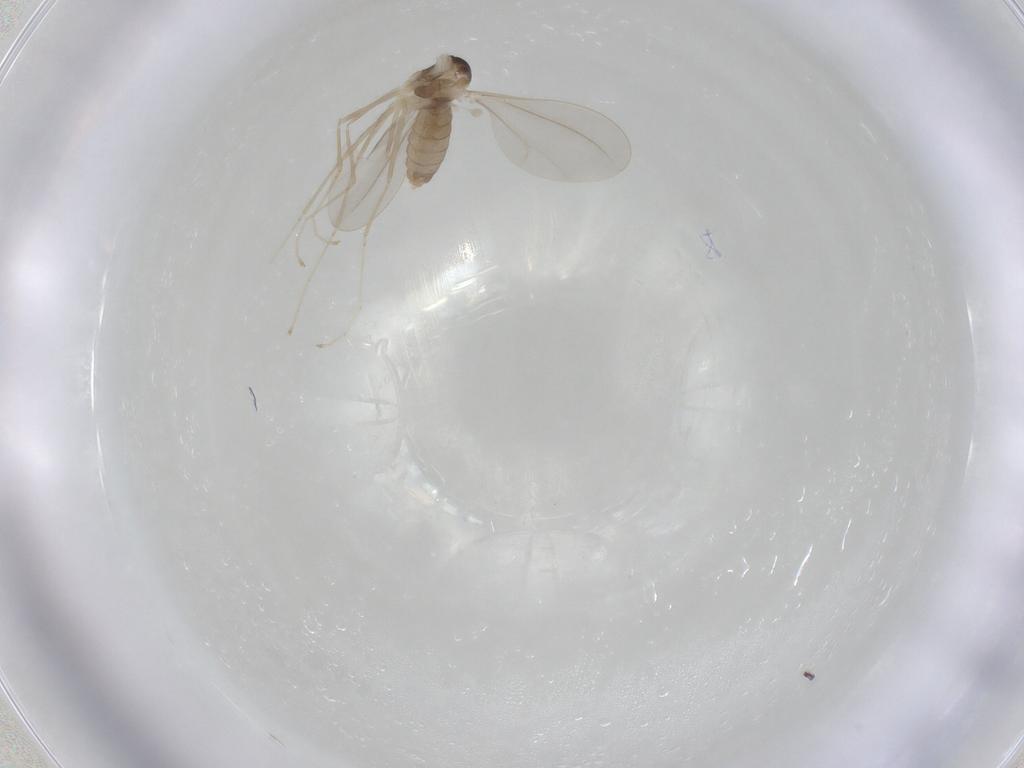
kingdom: Animalia
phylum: Arthropoda
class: Insecta
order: Diptera
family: Cecidomyiidae
